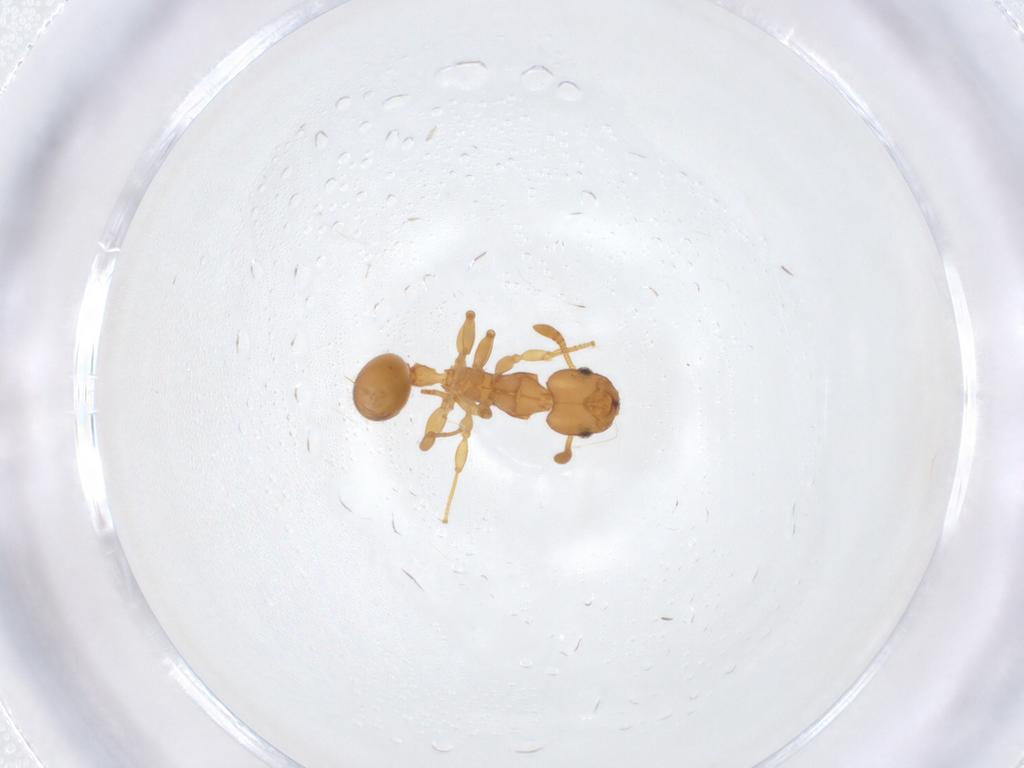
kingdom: Animalia
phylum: Arthropoda
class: Insecta
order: Hymenoptera
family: Formicidae
